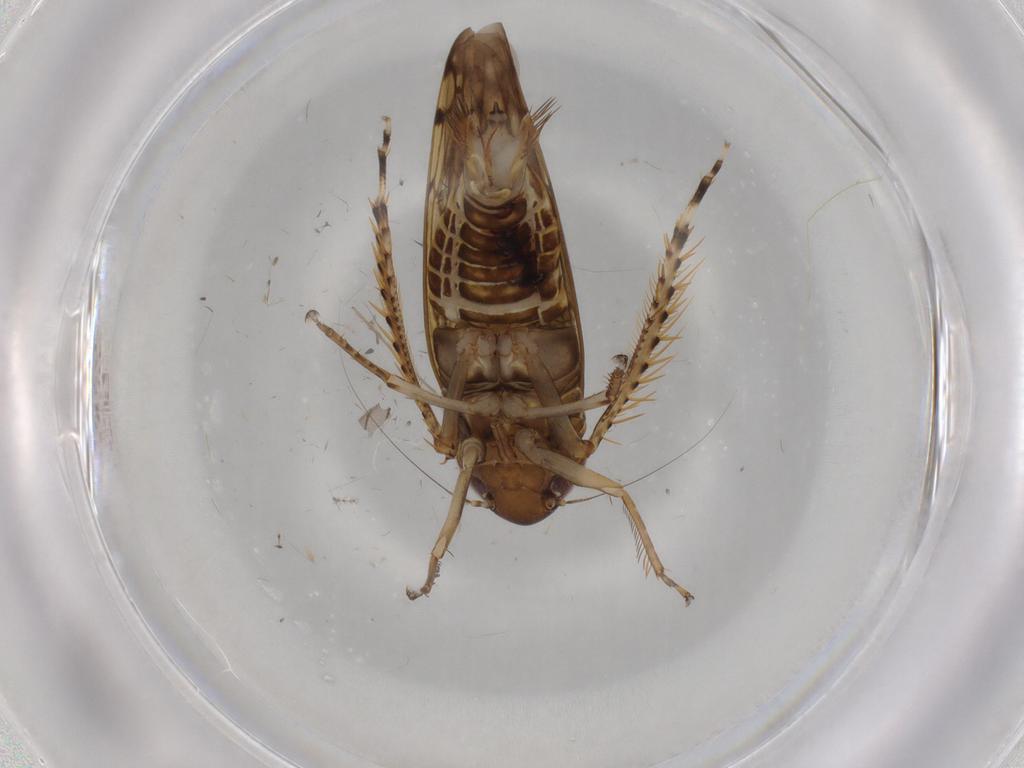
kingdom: Animalia
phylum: Arthropoda
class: Insecta
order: Hemiptera
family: Cicadellidae
